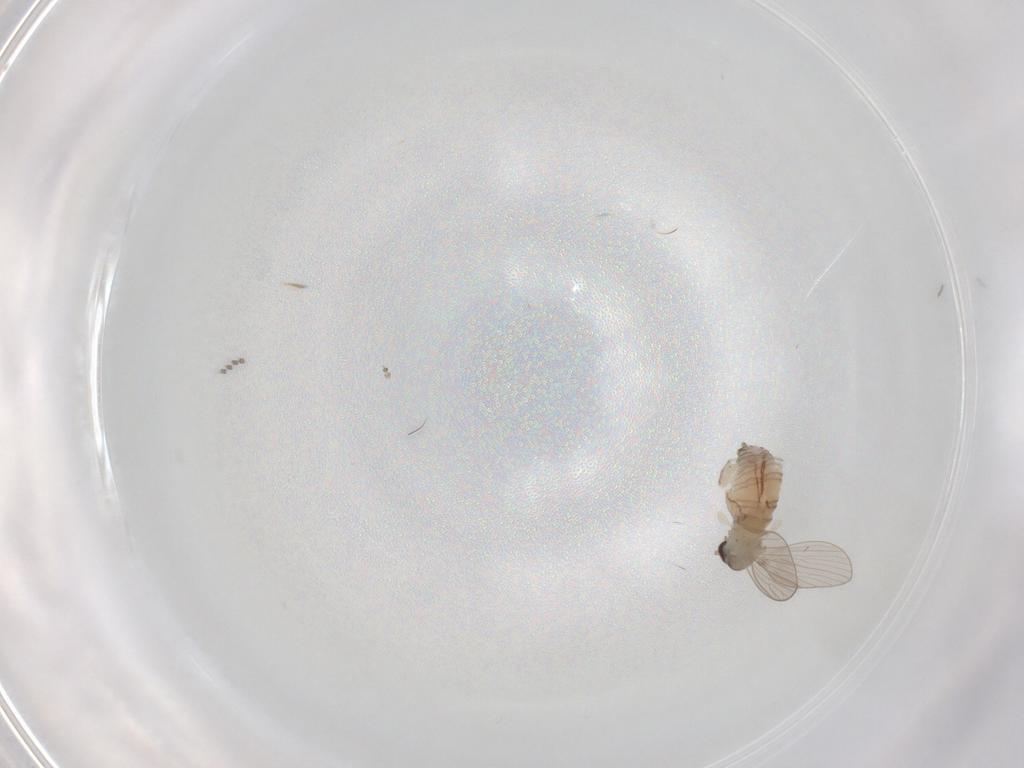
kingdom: Animalia
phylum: Arthropoda
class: Insecta
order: Diptera
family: Psychodidae
